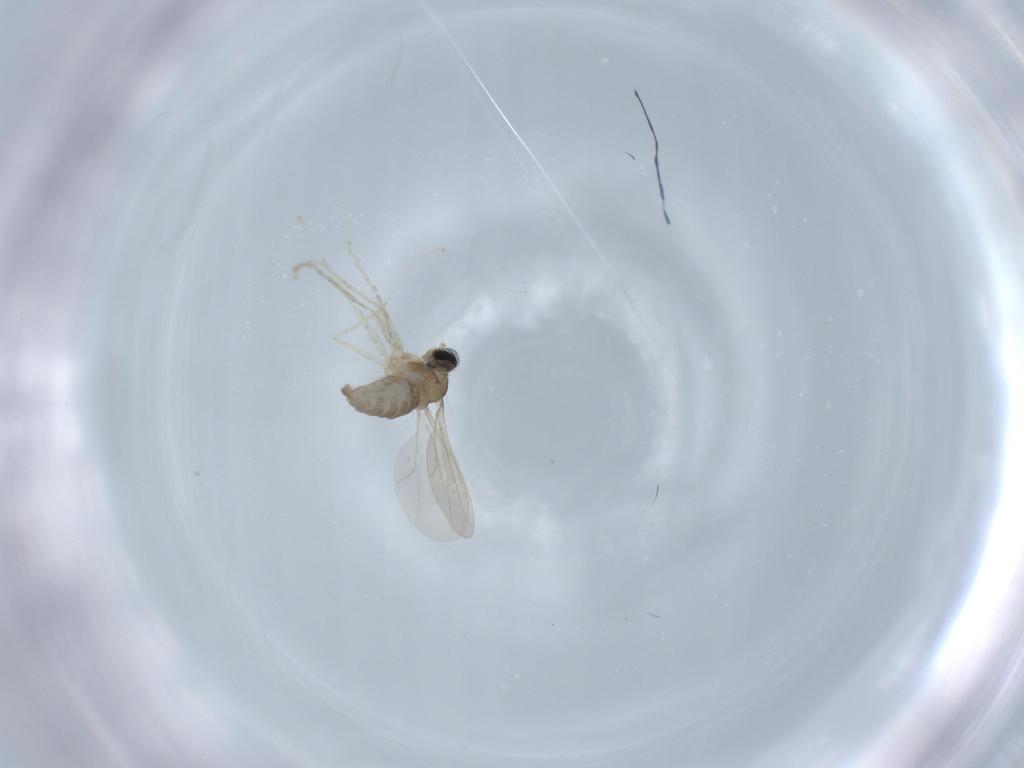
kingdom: Animalia
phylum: Arthropoda
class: Insecta
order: Diptera
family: Cecidomyiidae
